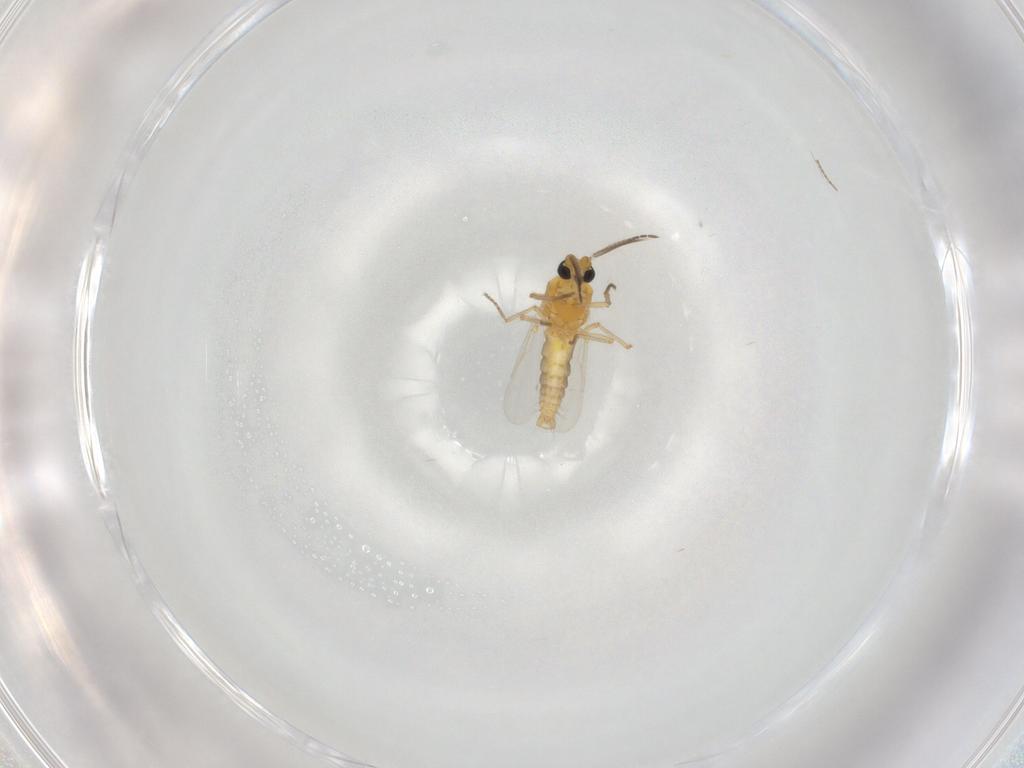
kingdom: Animalia
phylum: Arthropoda
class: Insecta
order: Diptera
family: Ceratopogonidae
